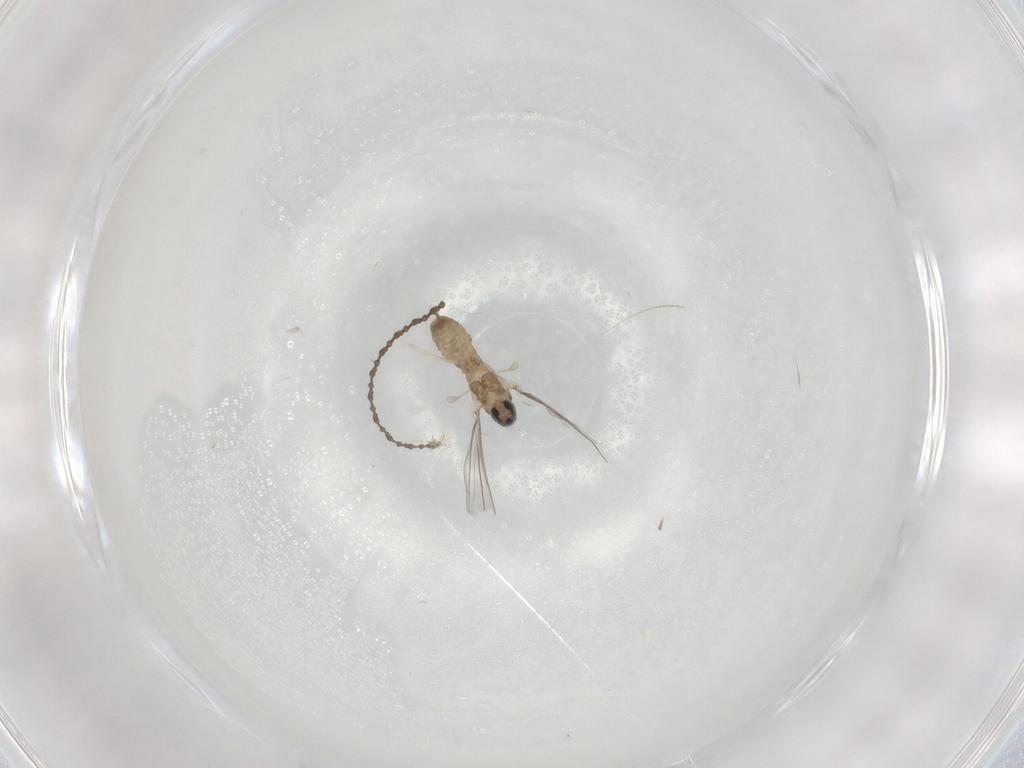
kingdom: Animalia
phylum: Arthropoda
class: Insecta
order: Diptera
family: Cecidomyiidae
